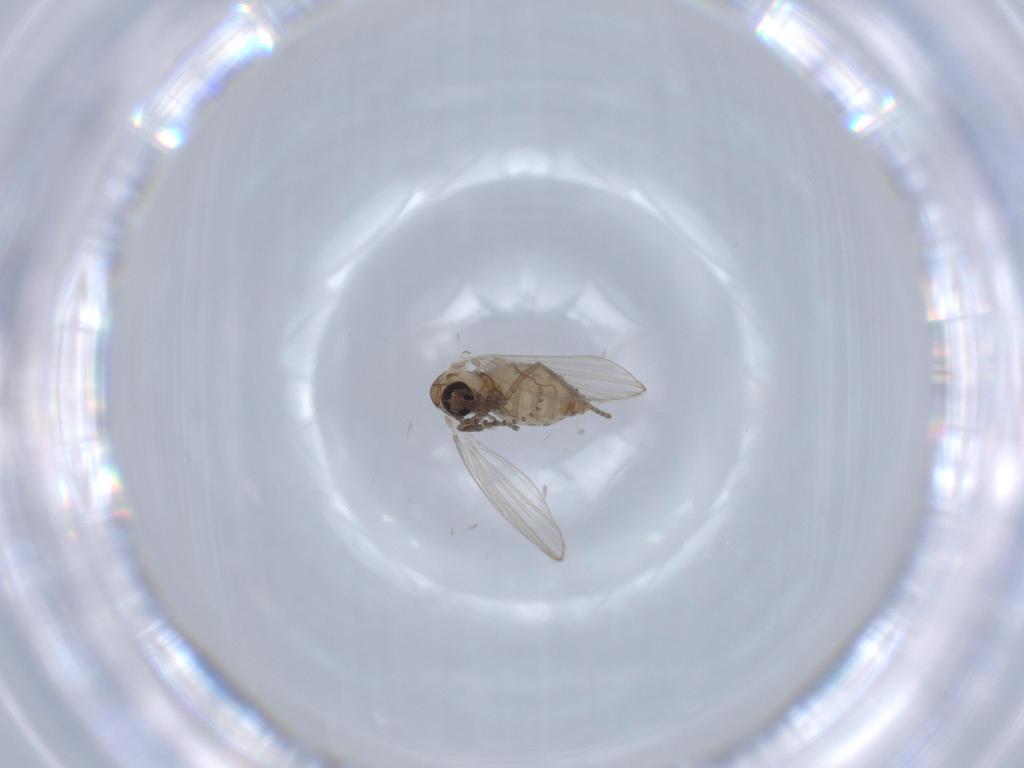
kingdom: Animalia
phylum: Arthropoda
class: Insecta
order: Diptera
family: Psychodidae
